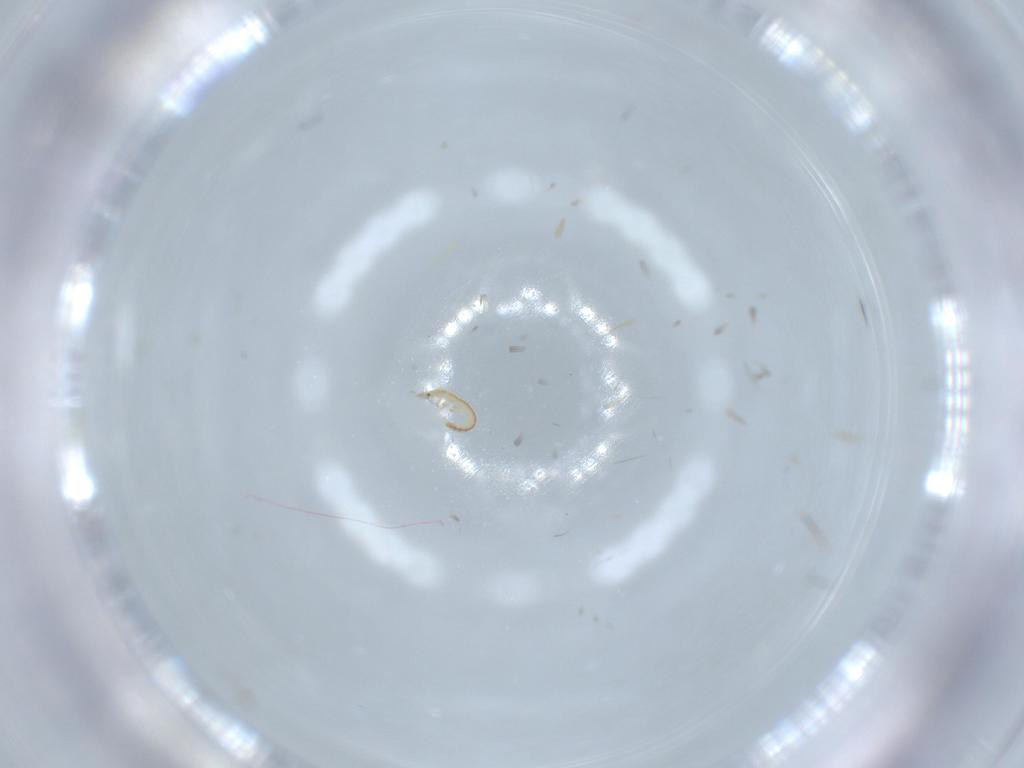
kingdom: Animalia
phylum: Arthropoda
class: Insecta
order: Neuroptera
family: Mantispidae
